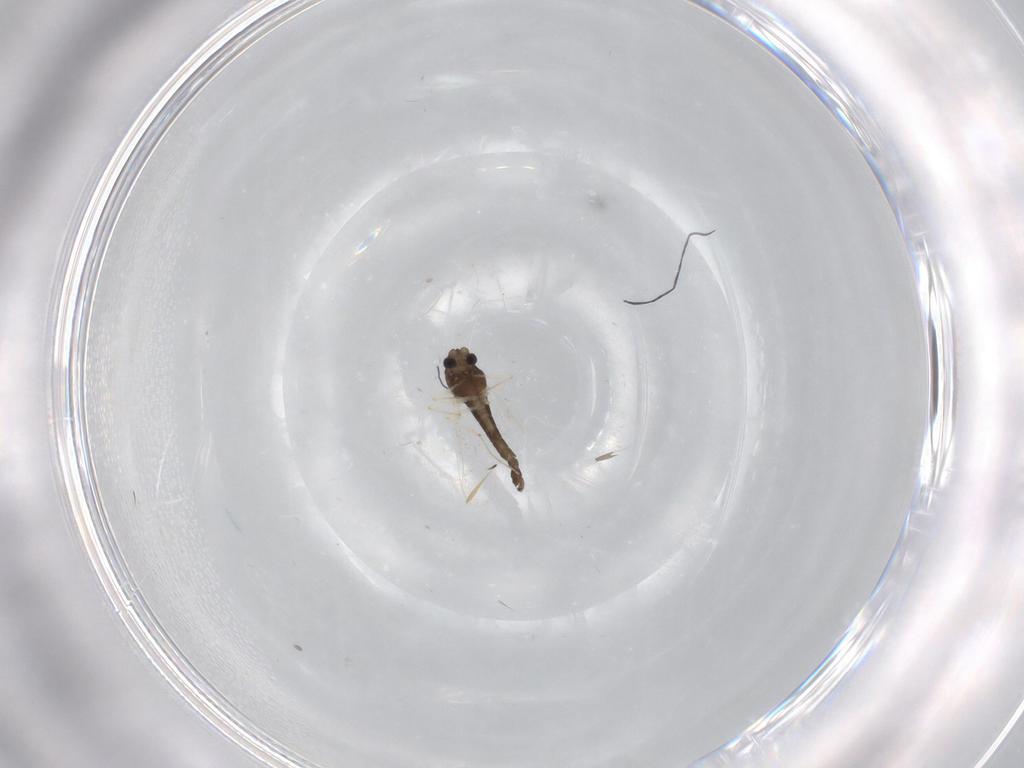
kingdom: Animalia
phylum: Arthropoda
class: Insecta
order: Diptera
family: Chironomidae
